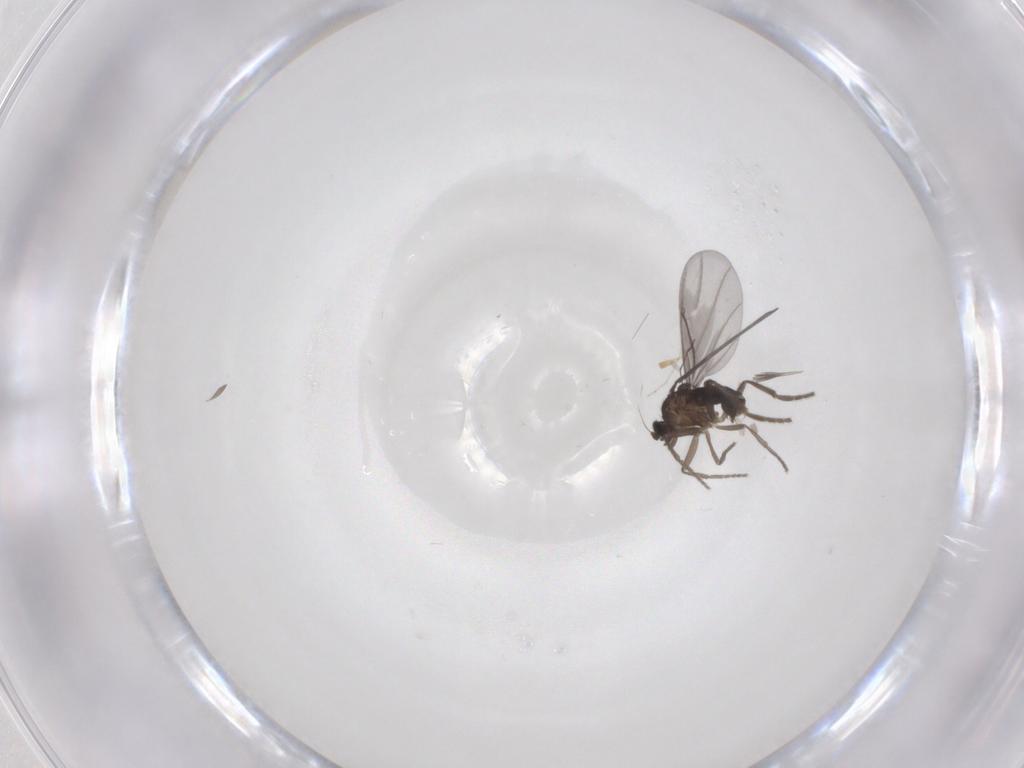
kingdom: Animalia
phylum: Arthropoda
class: Insecta
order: Diptera
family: Phoridae
